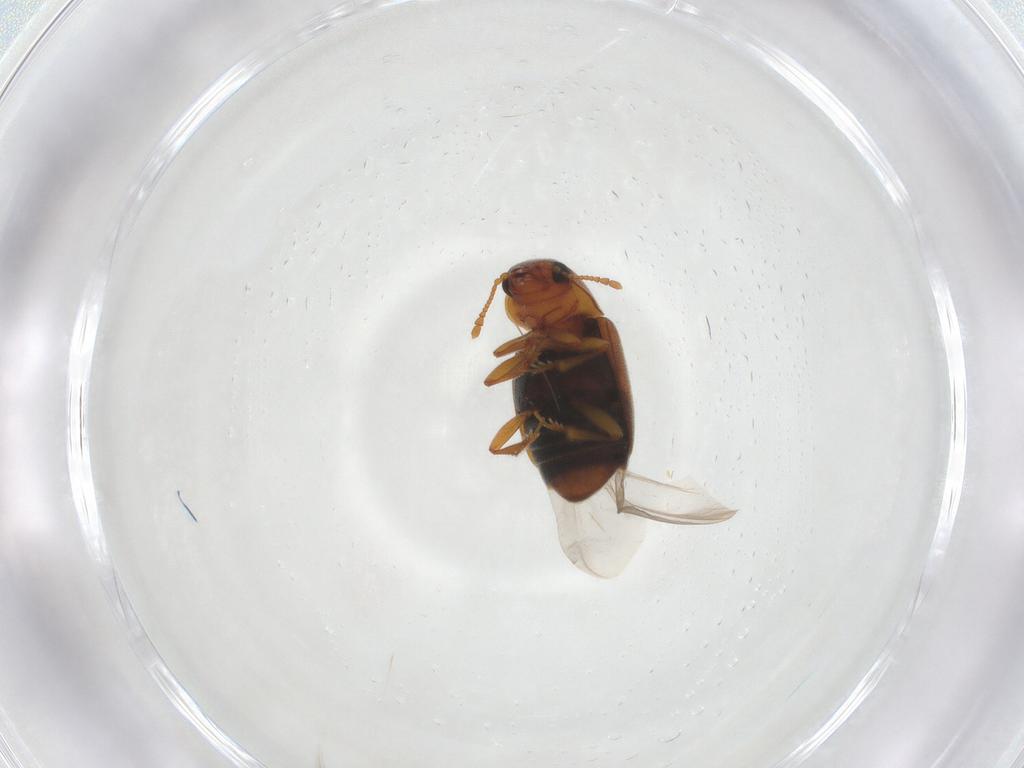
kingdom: Animalia
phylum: Arthropoda
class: Insecta
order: Coleoptera
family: Kateretidae
